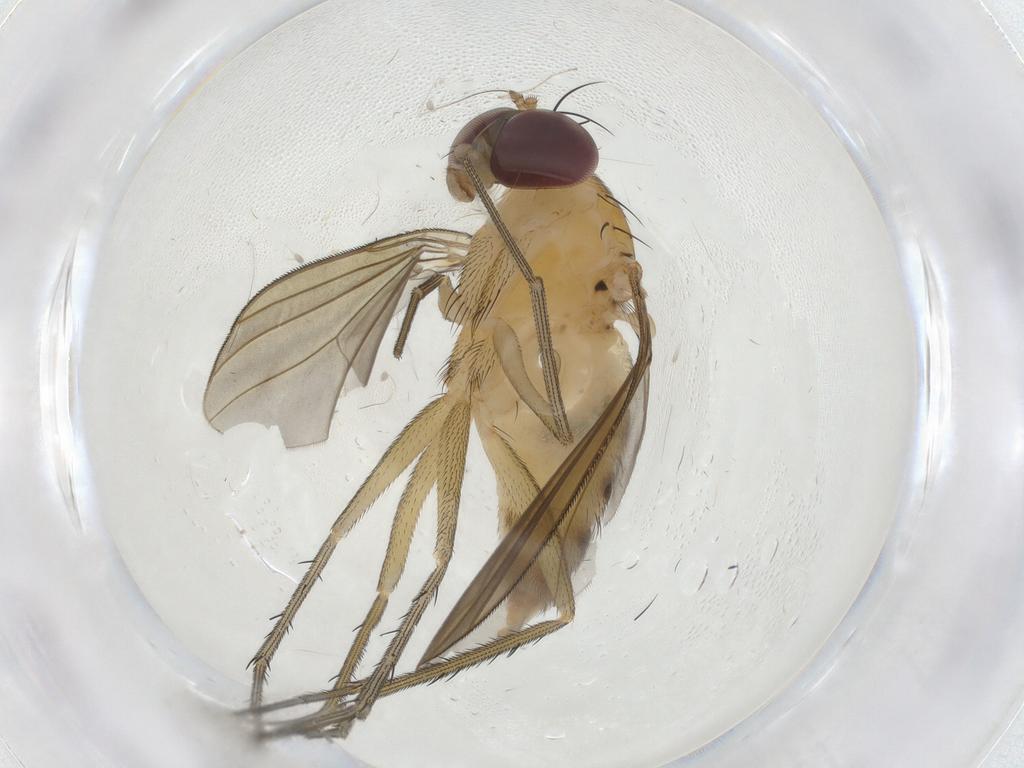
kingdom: Animalia
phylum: Arthropoda
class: Insecta
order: Diptera
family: Dolichopodidae
